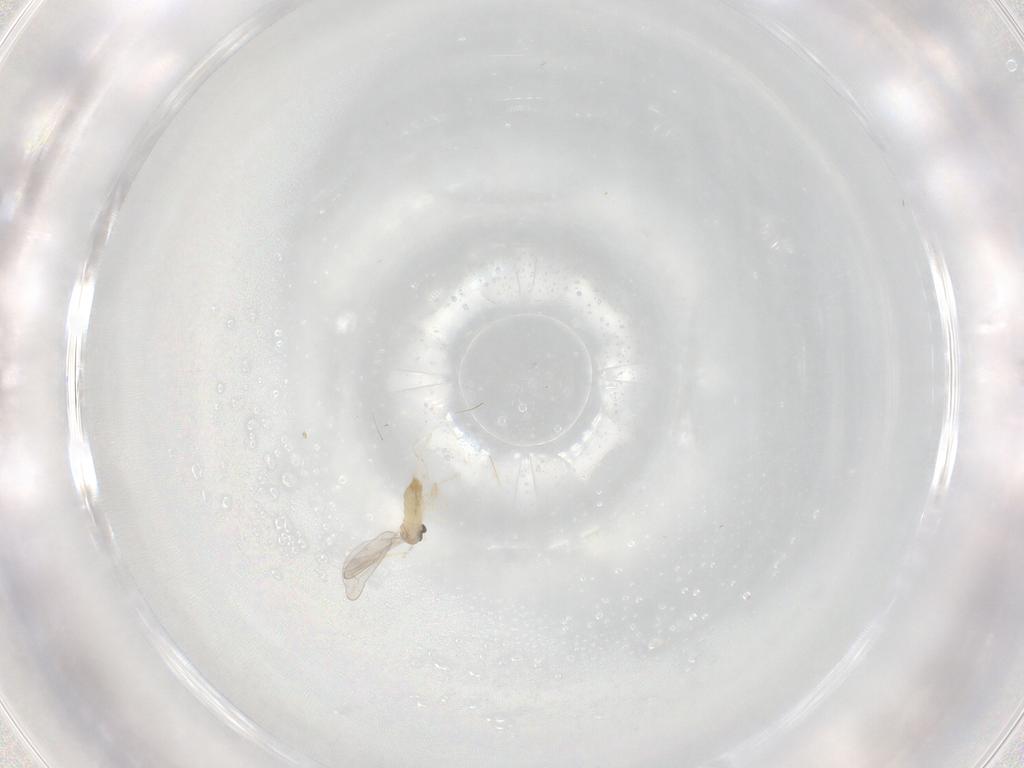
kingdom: Animalia
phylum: Arthropoda
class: Insecta
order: Diptera
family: Cecidomyiidae
